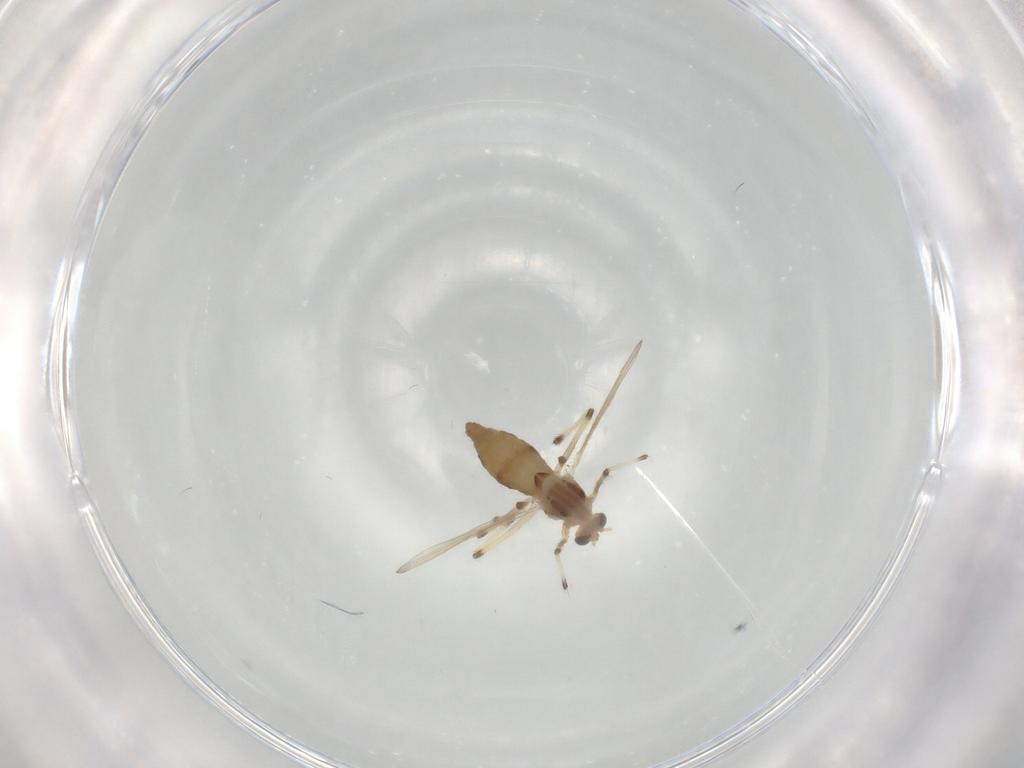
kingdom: Animalia
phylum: Arthropoda
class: Insecta
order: Diptera
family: Chironomidae
